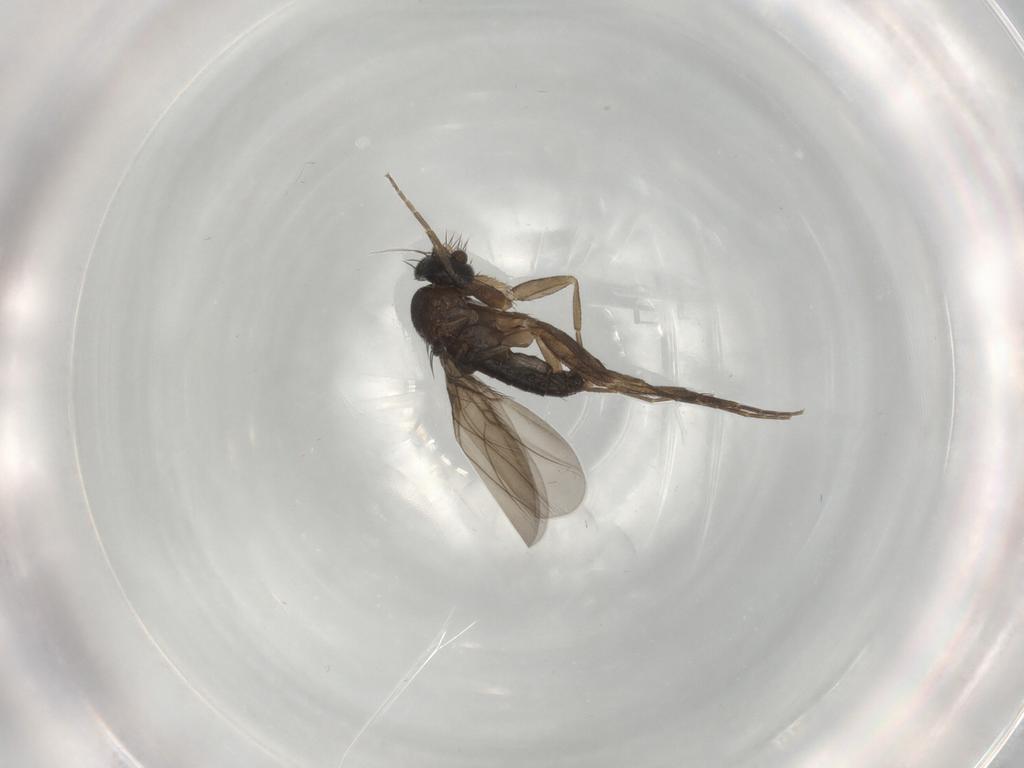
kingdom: Animalia
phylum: Arthropoda
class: Insecta
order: Diptera
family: Phoridae
